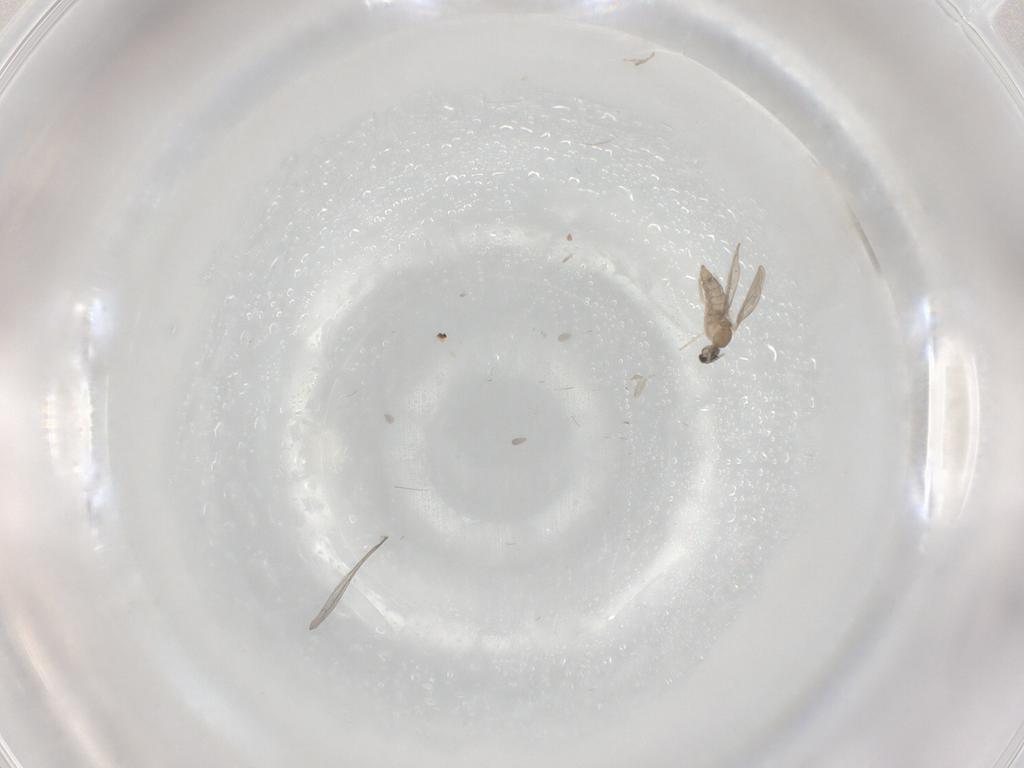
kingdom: Animalia
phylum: Arthropoda
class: Insecta
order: Diptera
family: Cecidomyiidae
